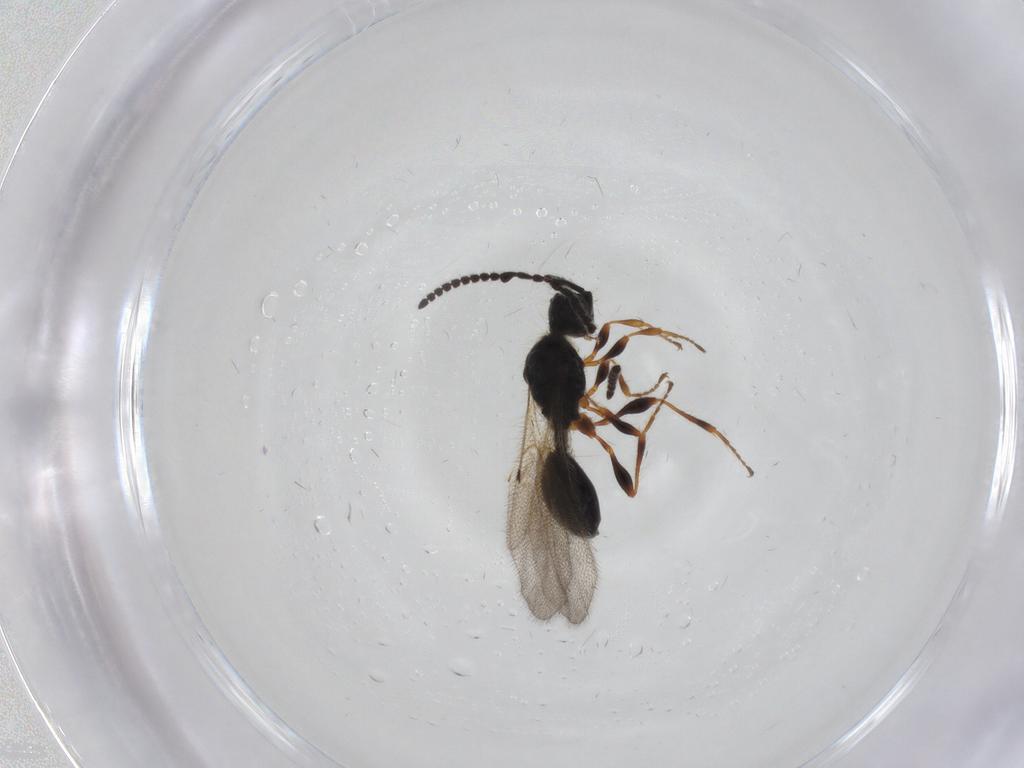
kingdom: Animalia
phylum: Arthropoda
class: Insecta
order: Hymenoptera
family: Diapriidae
